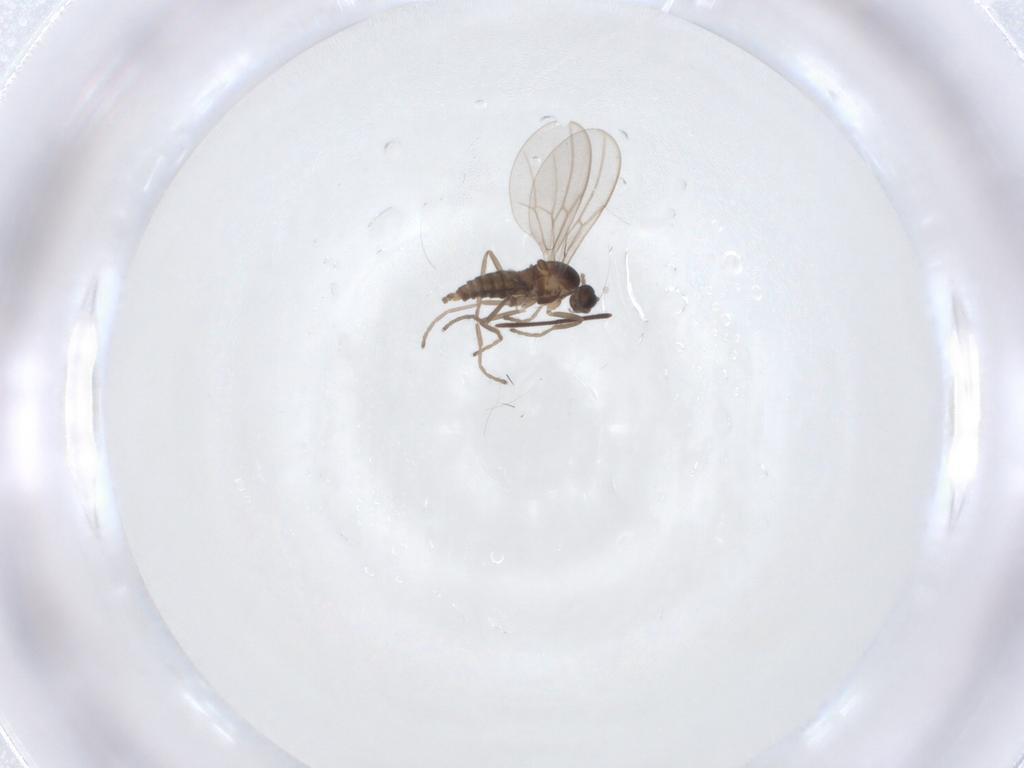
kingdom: Animalia
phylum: Arthropoda
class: Insecta
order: Diptera
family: Cecidomyiidae
